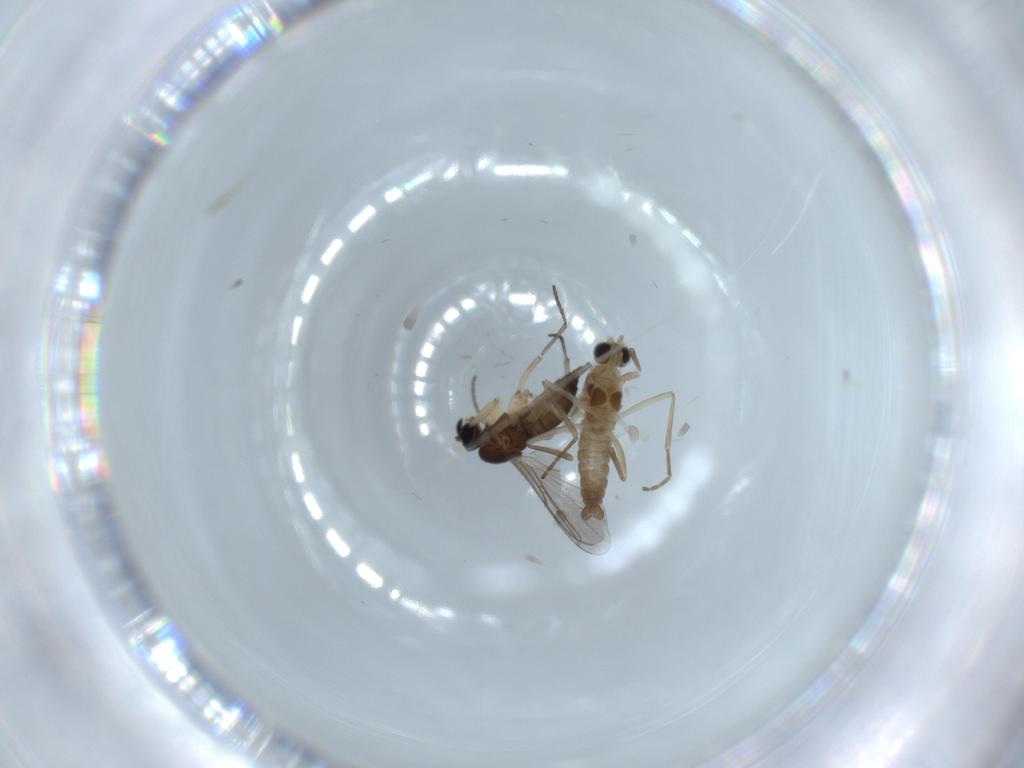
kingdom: Animalia
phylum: Arthropoda
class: Insecta
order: Diptera
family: Sciaridae
